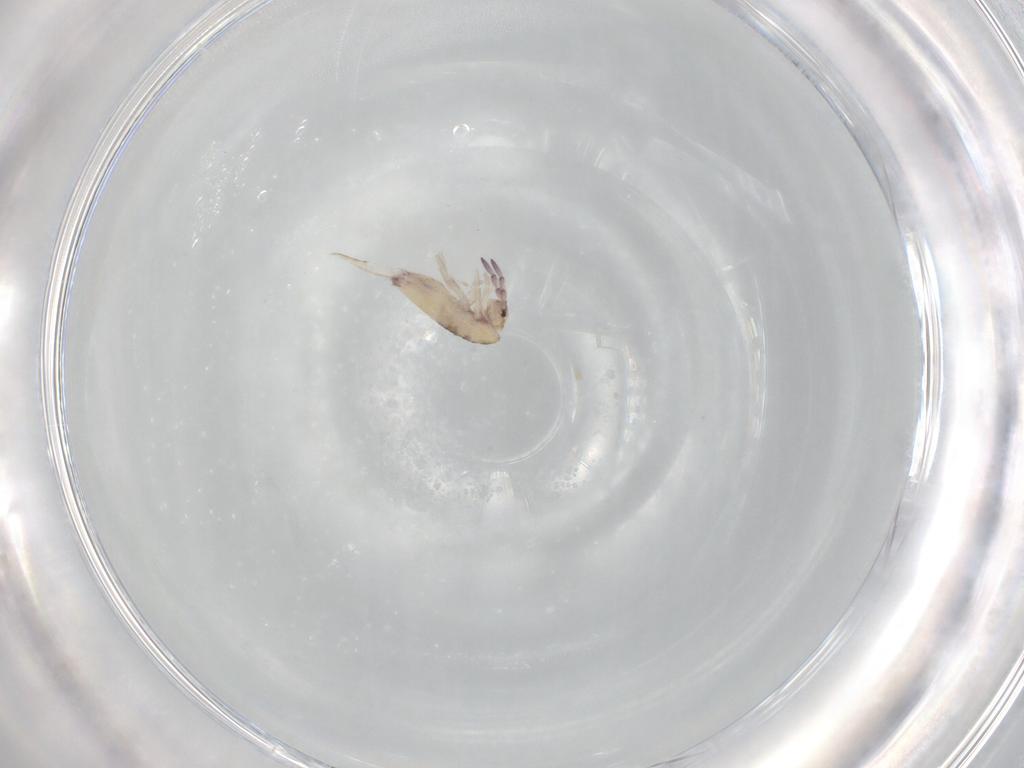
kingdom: Animalia
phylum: Arthropoda
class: Collembola
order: Entomobryomorpha
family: Entomobryidae
